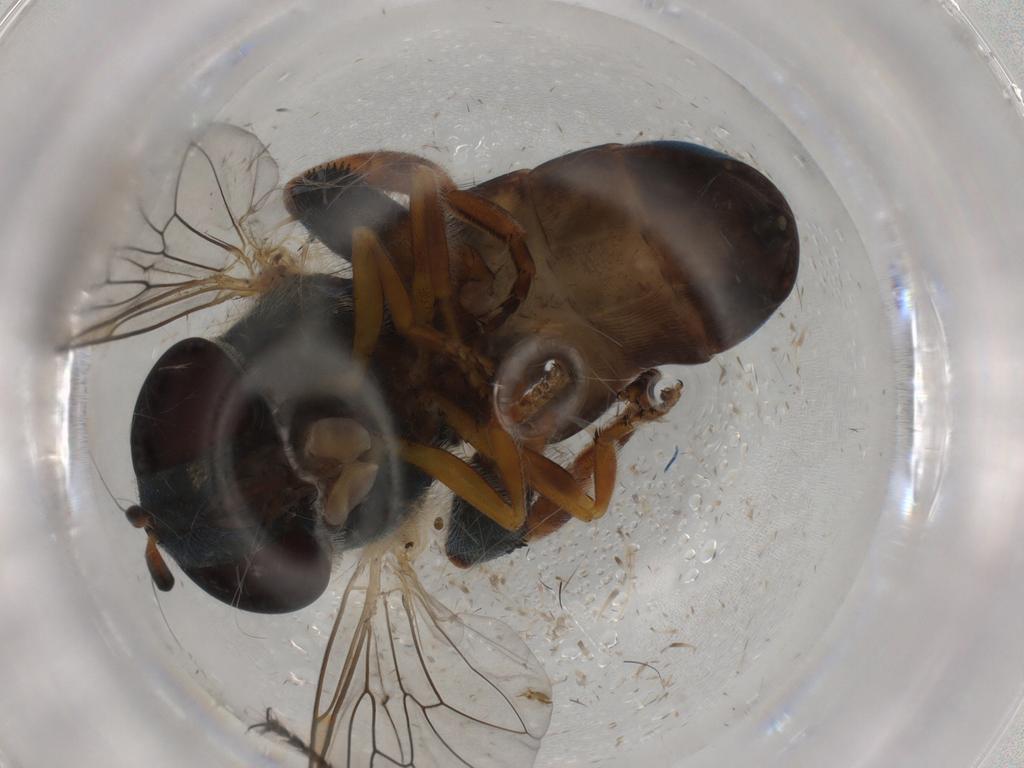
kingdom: Animalia
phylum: Arthropoda
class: Insecta
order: Diptera
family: Syrphidae
